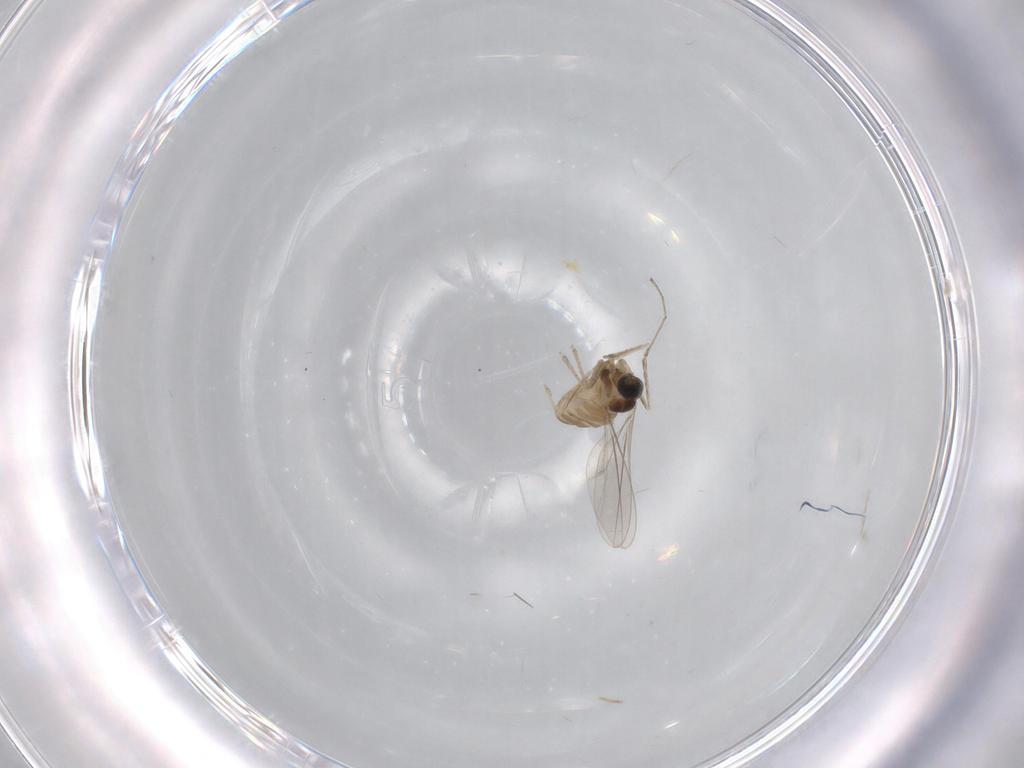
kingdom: Animalia
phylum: Arthropoda
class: Insecta
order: Diptera
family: Cecidomyiidae
